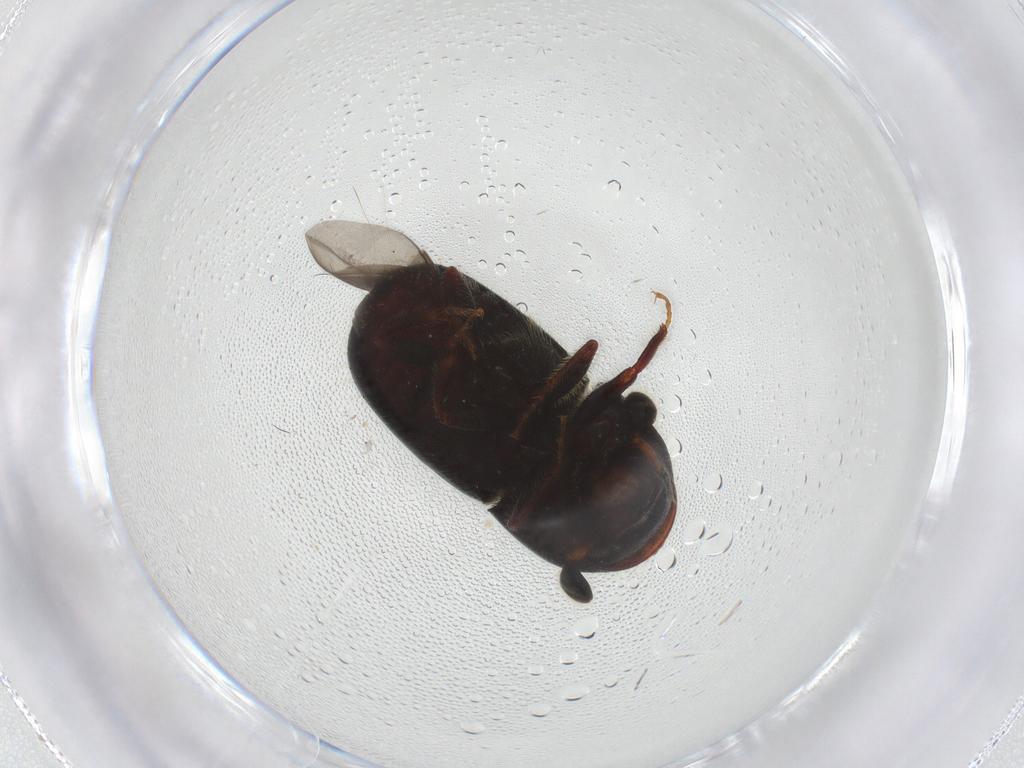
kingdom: Animalia
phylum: Arthropoda
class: Insecta
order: Coleoptera
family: Curculionidae
